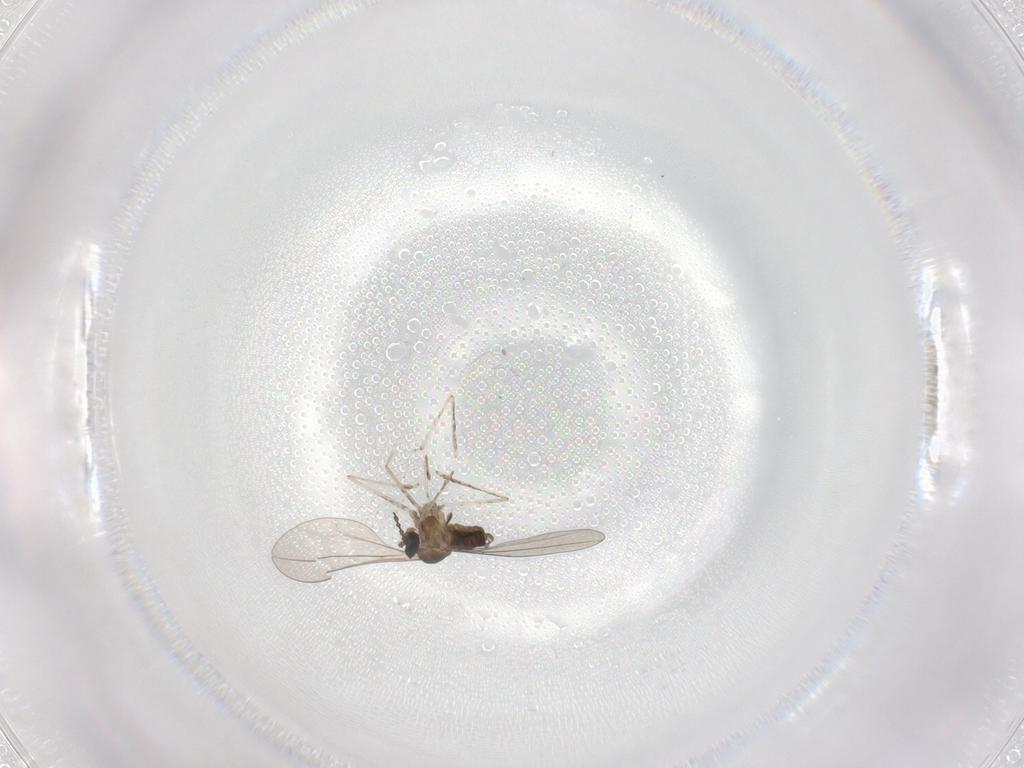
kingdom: Animalia
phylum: Arthropoda
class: Insecta
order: Diptera
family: Cecidomyiidae
